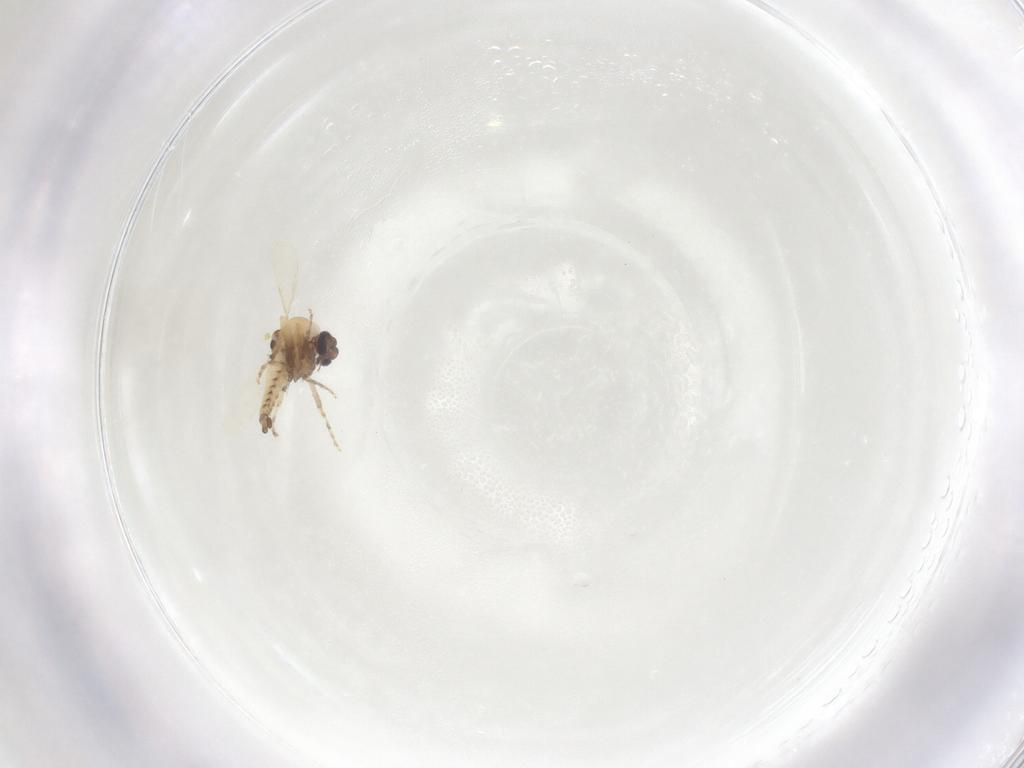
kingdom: Animalia
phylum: Arthropoda
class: Insecta
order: Diptera
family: Ceratopogonidae
